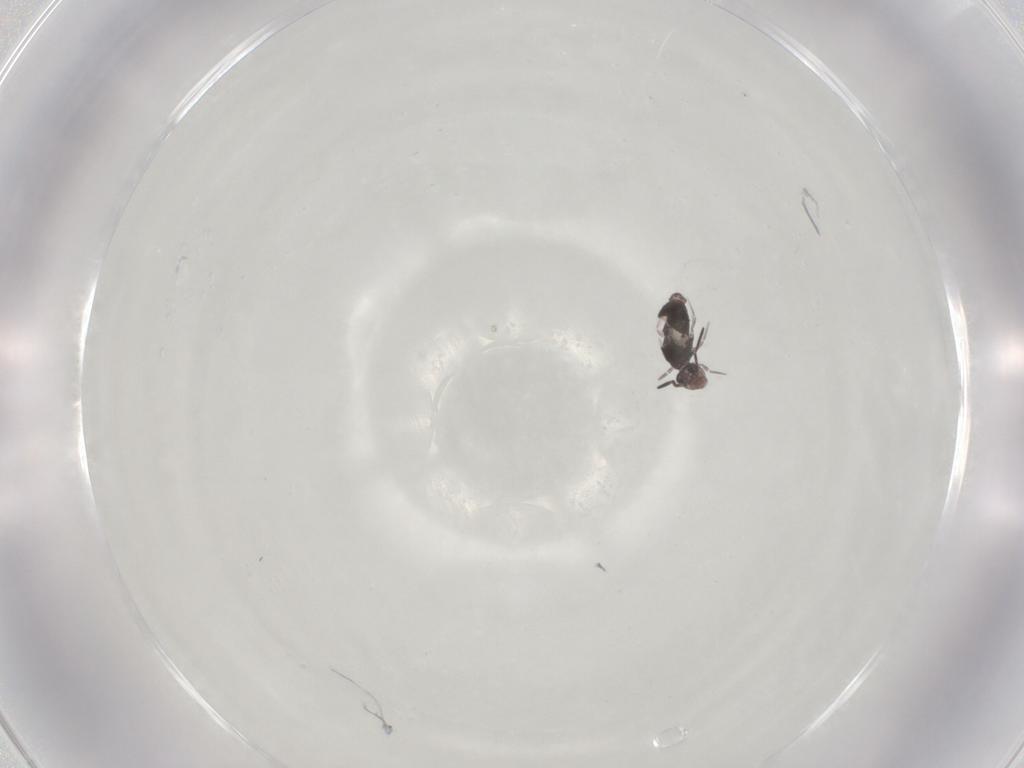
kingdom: Animalia
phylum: Arthropoda
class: Collembola
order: Symphypleona
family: Katiannidae
